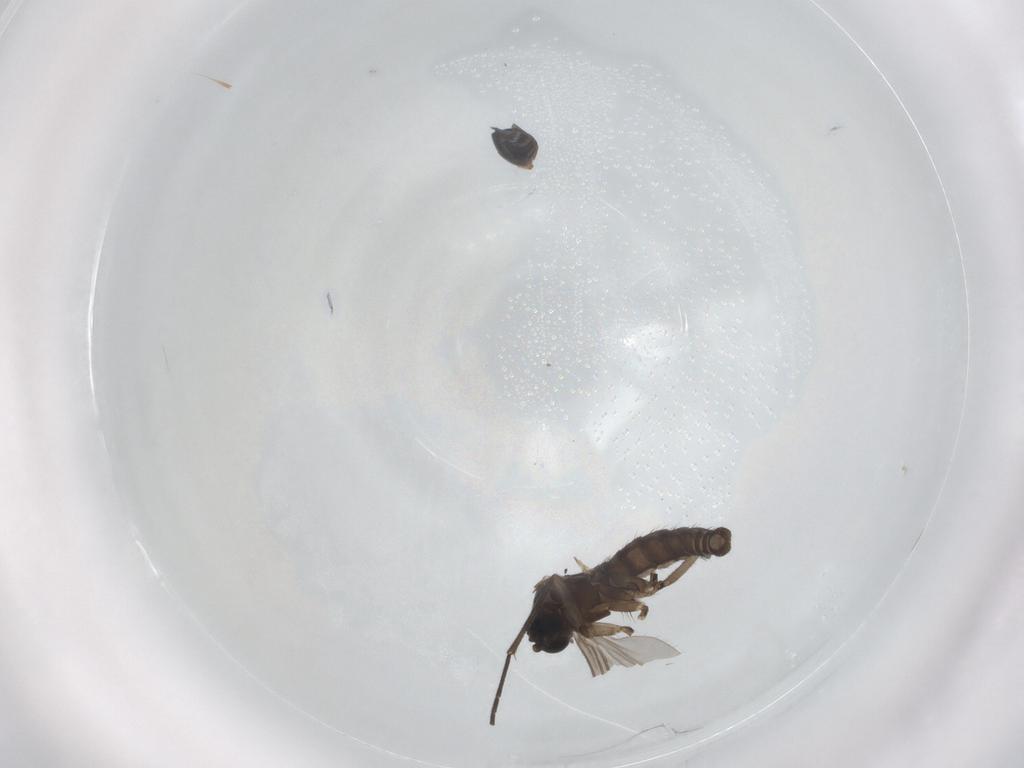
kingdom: Animalia
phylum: Arthropoda
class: Insecta
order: Diptera
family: Sciaridae
